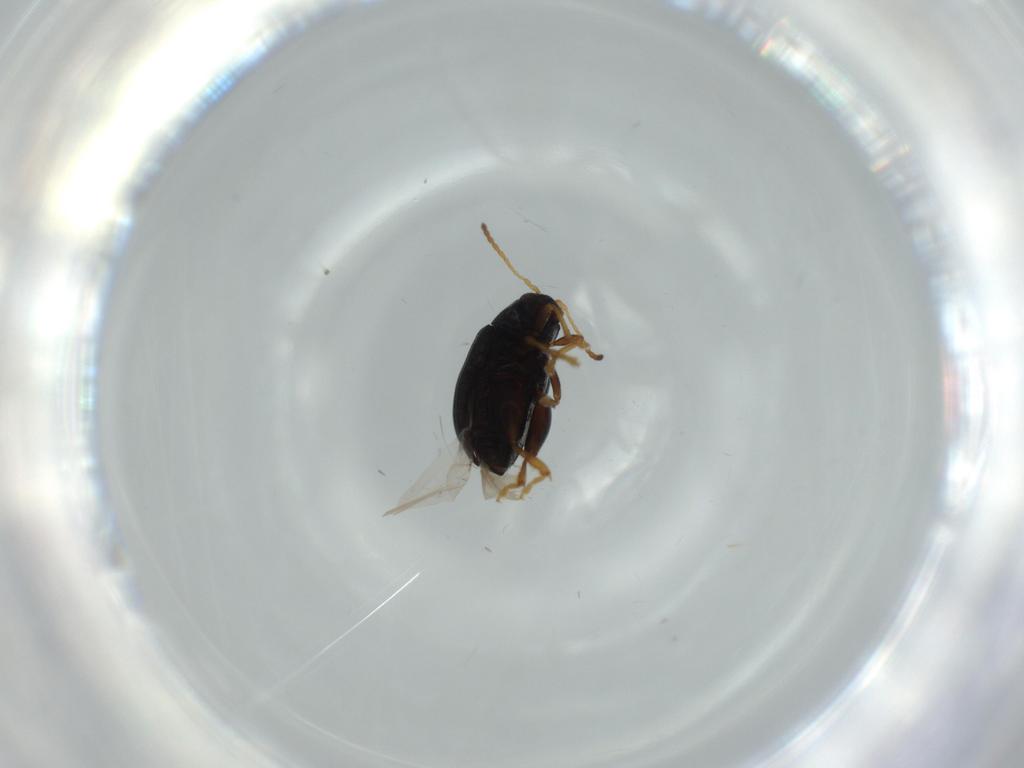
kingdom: Animalia
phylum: Arthropoda
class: Insecta
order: Coleoptera
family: Chrysomelidae
